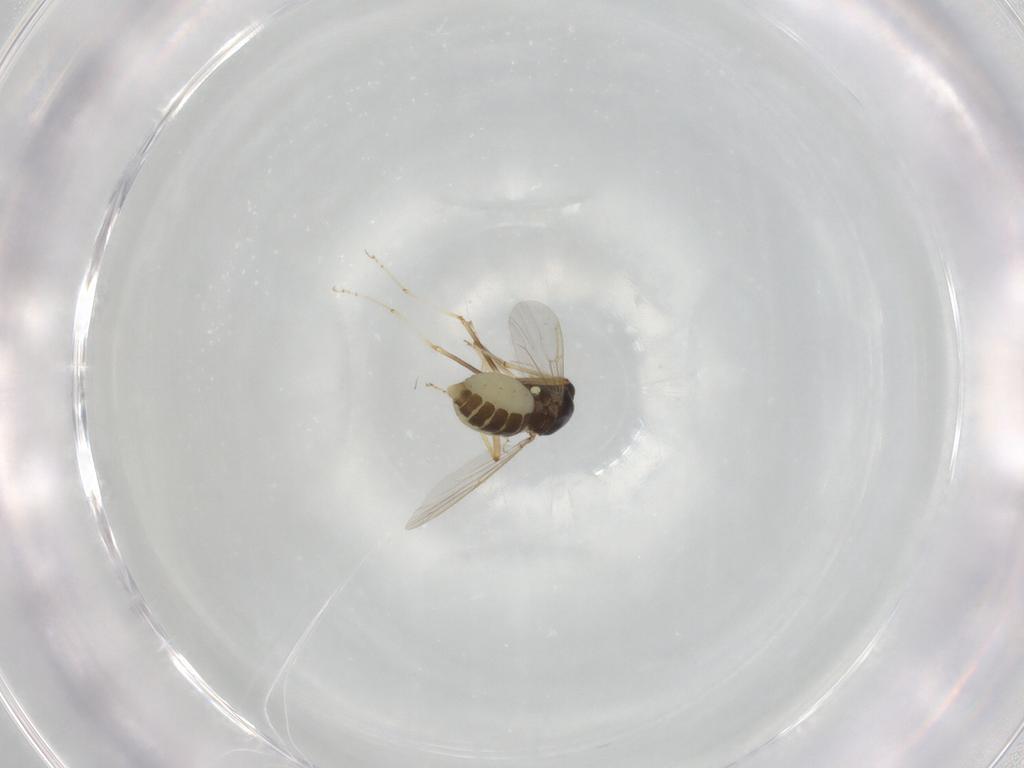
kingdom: Animalia
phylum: Arthropoda
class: Insecta
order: Diptera
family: Ceratopogonidae
